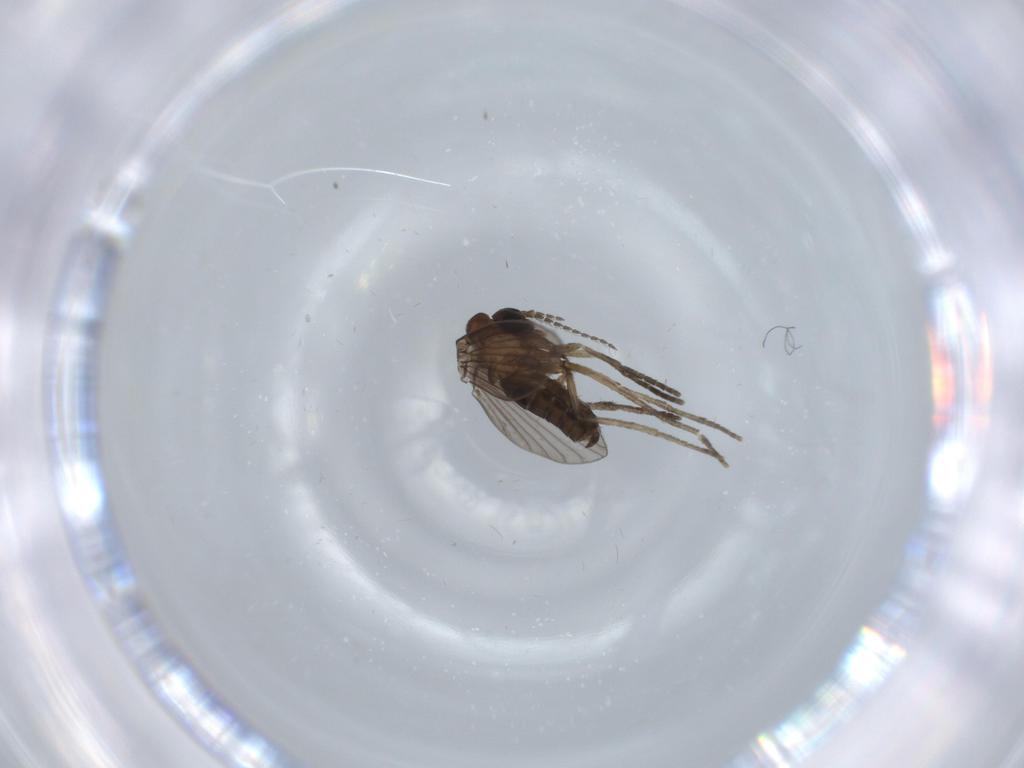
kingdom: Animalia
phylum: Arthropoda
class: Insecta
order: Diptera
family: Psychodidae
